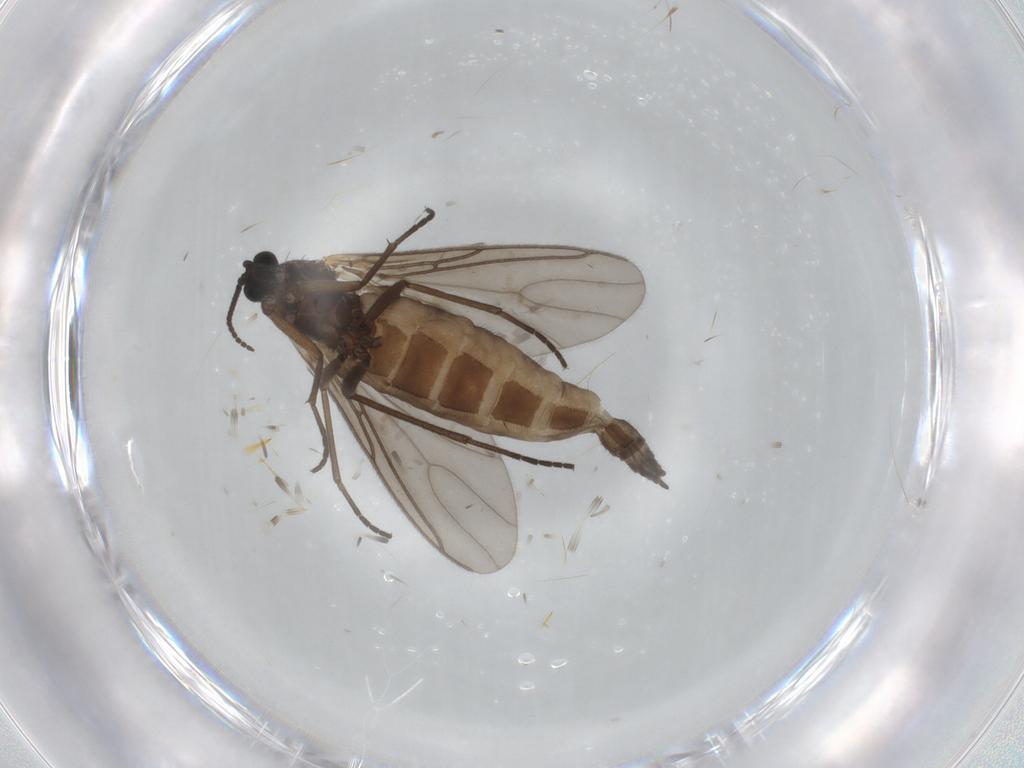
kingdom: Animalia
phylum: Arthropoda
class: Insecta
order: Diptera
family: Sciaridae
